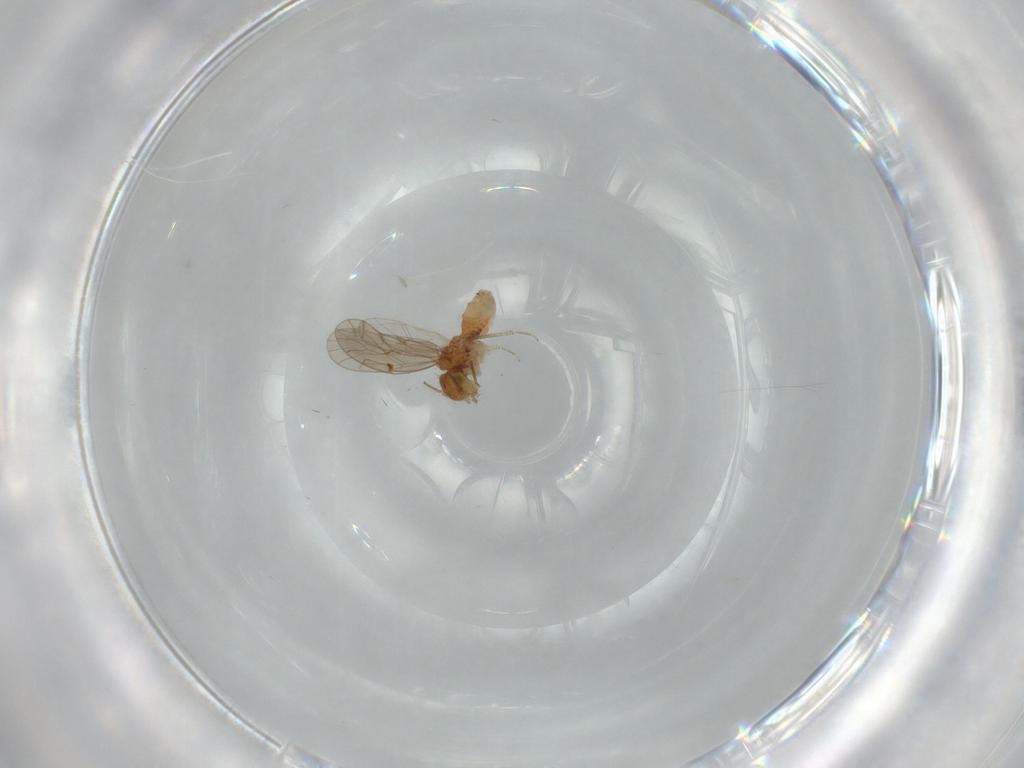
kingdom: Animalia
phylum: Arthropoda
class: Insecta
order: Psocodea
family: Ectopsocidae
